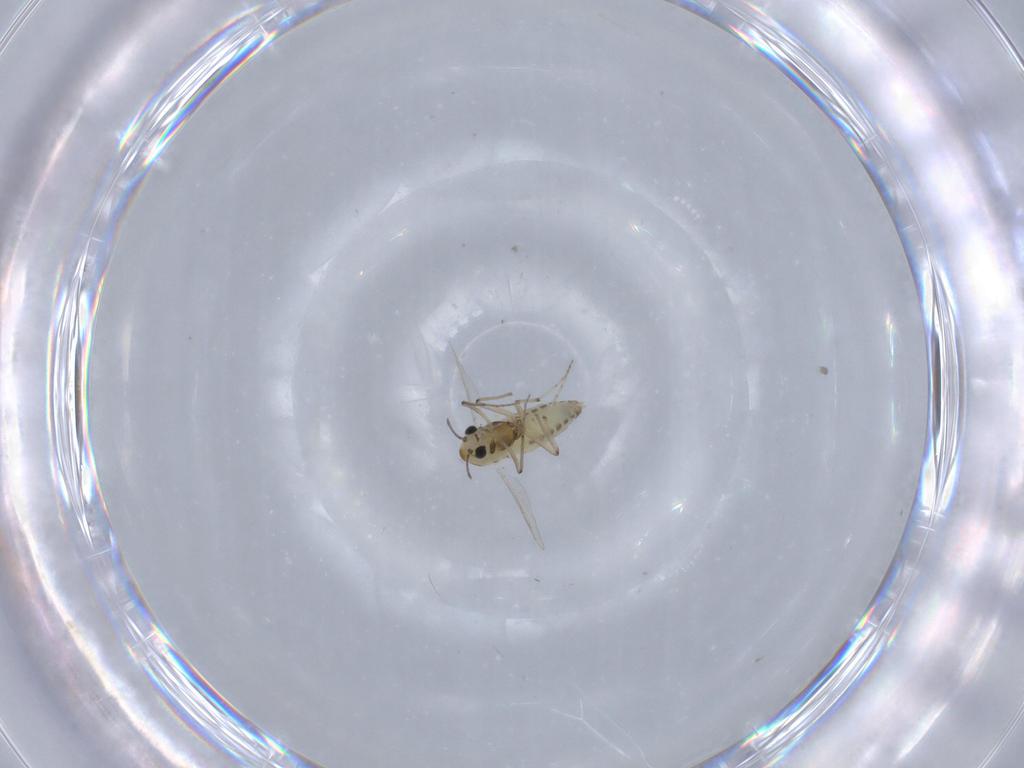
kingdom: Animalia
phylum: Arthropoda
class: Insecta
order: Diptera
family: Chironomidae
